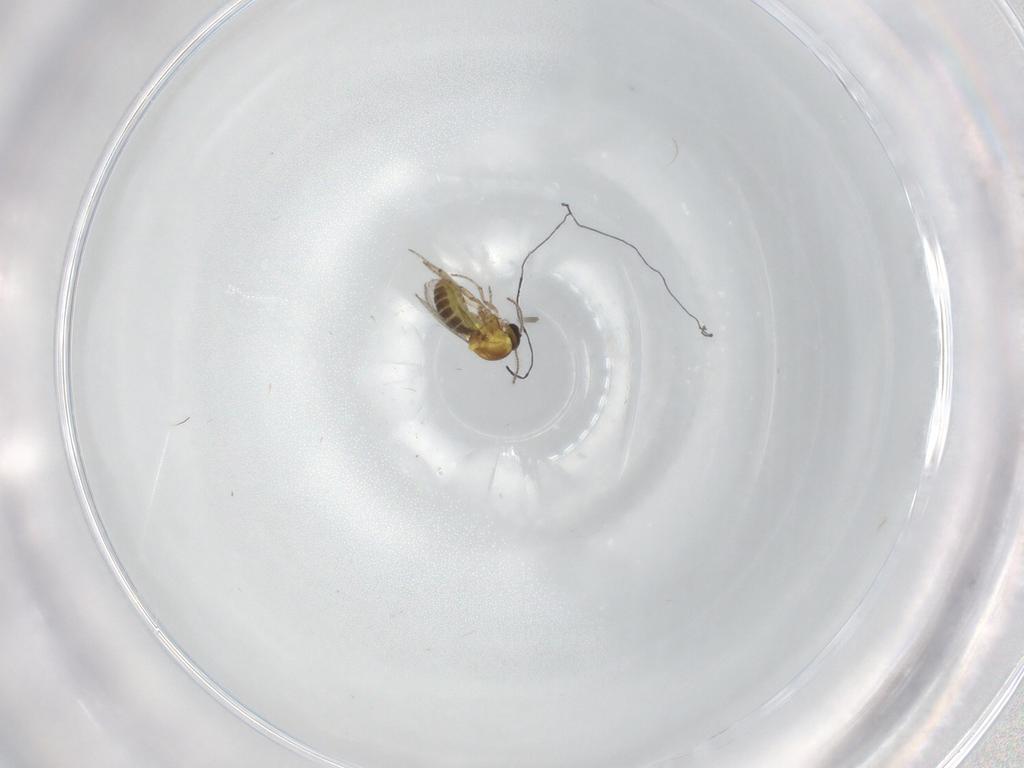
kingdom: Animalia
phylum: Arthropoda
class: Insecta
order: Diptera
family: Ceratopogonidae
